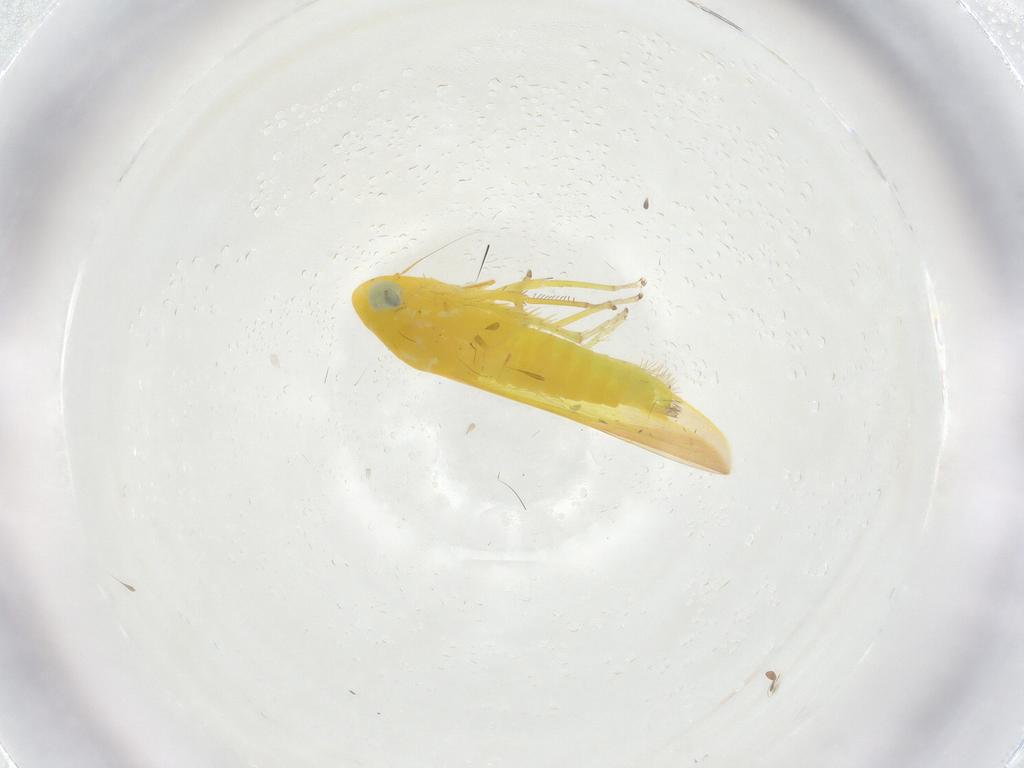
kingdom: Animalia
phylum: Arthropoda
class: Insecta
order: Hemiptera
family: Cicadellidae
